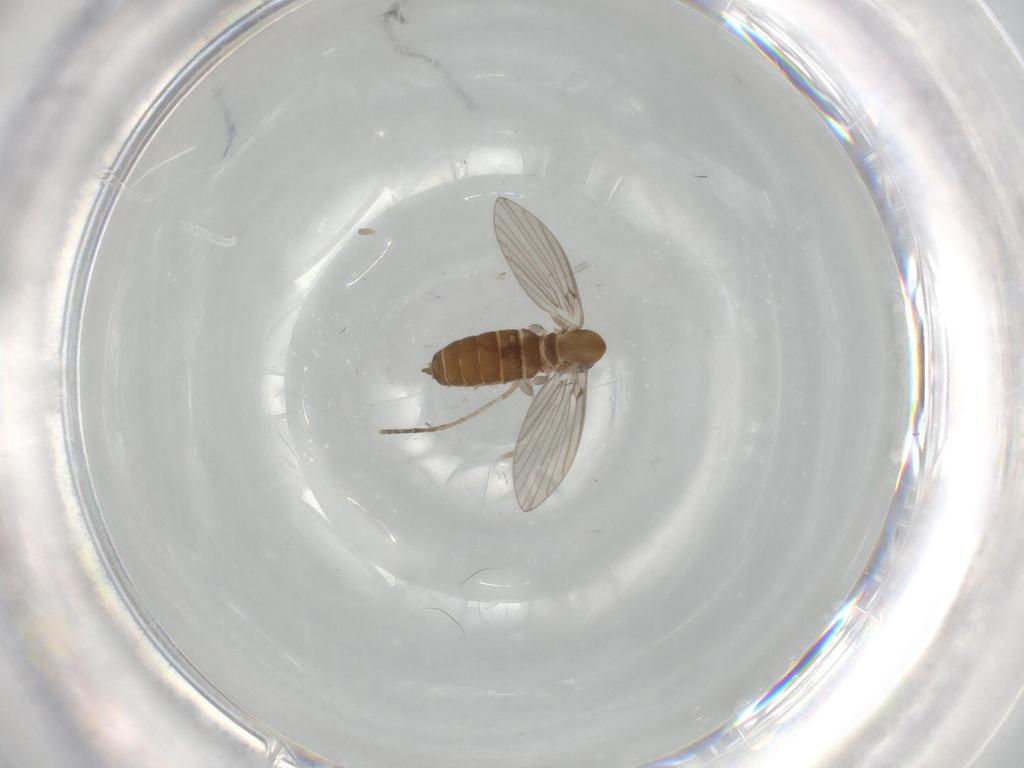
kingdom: Animalia
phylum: Arthropoda
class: Insecta
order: Diptera
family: Psychodidae
